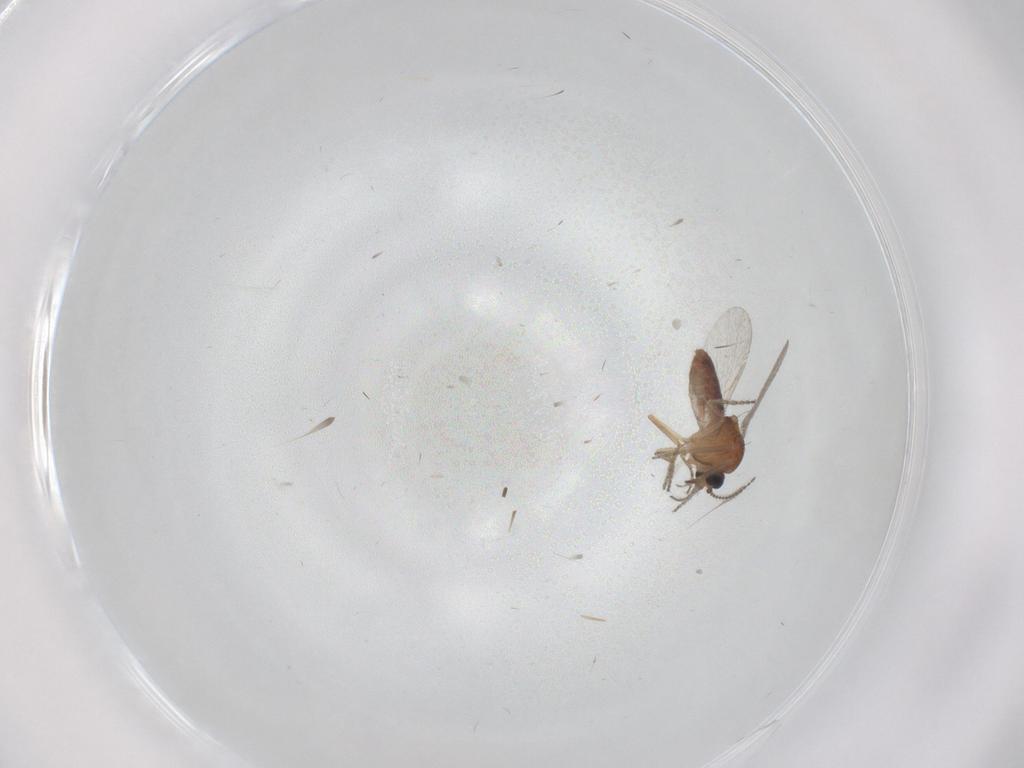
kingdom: Animalia
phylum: Arthropoda
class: Insecta
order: Diptera
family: Ceratopogonidae
